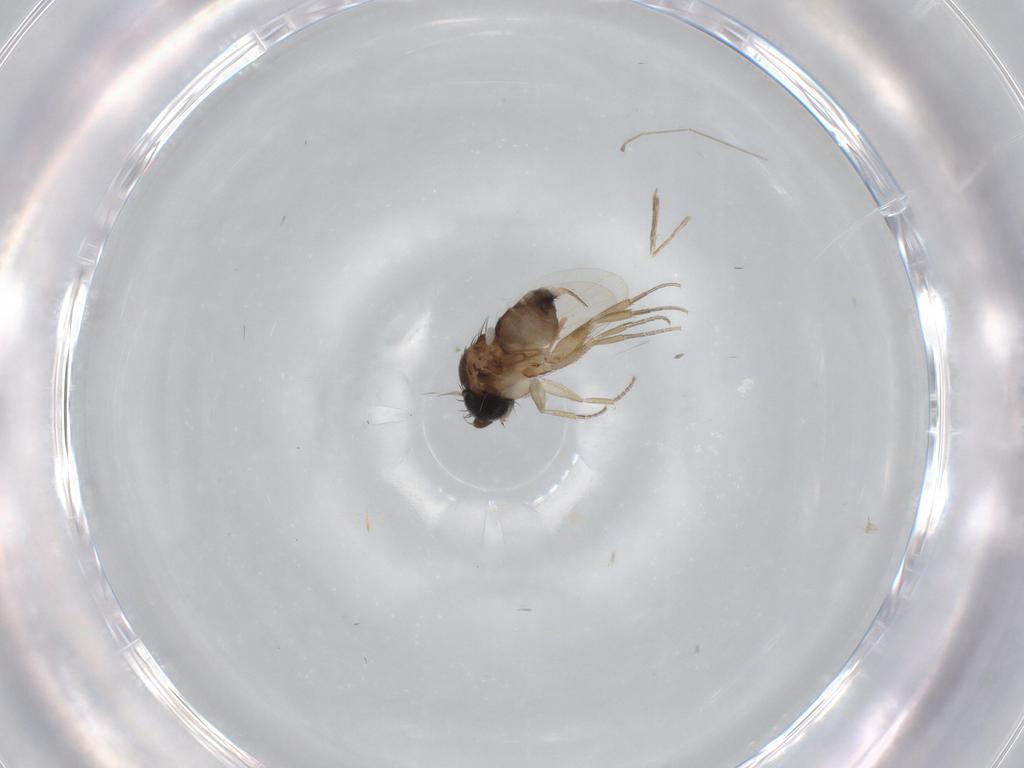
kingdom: Animalia
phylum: Arthropoda
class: Insecta
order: Diptera
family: Phoridae
